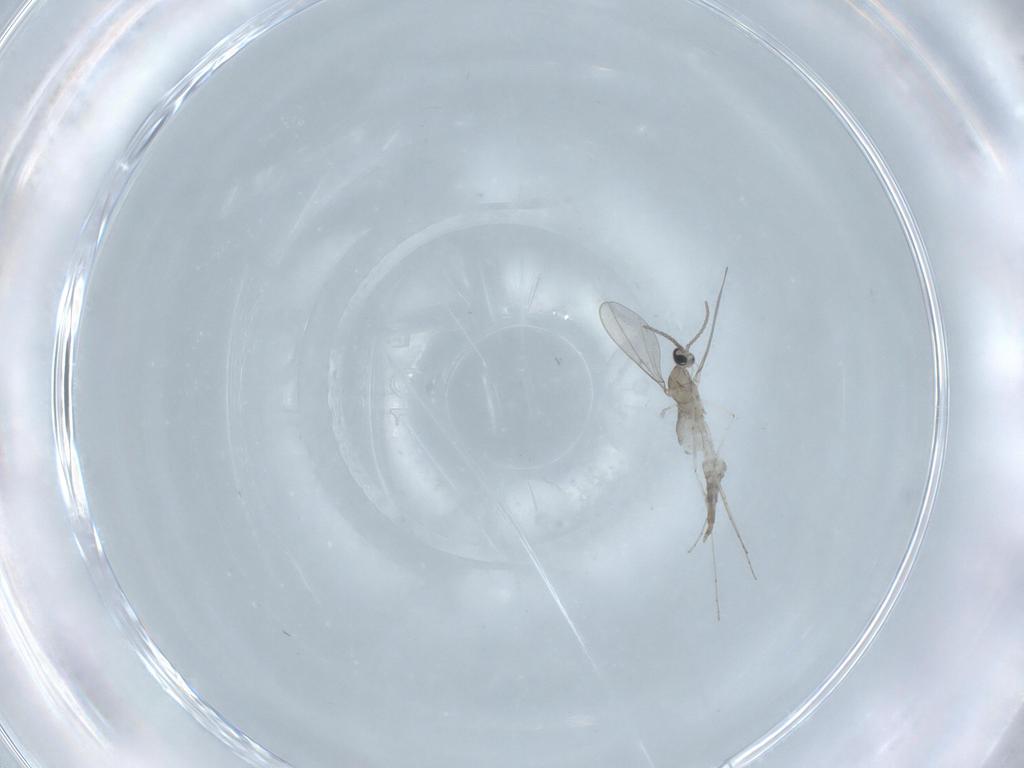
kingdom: Animalia
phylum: Arthropoda
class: Insecta
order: Diptera
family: Cecidomyiidae
